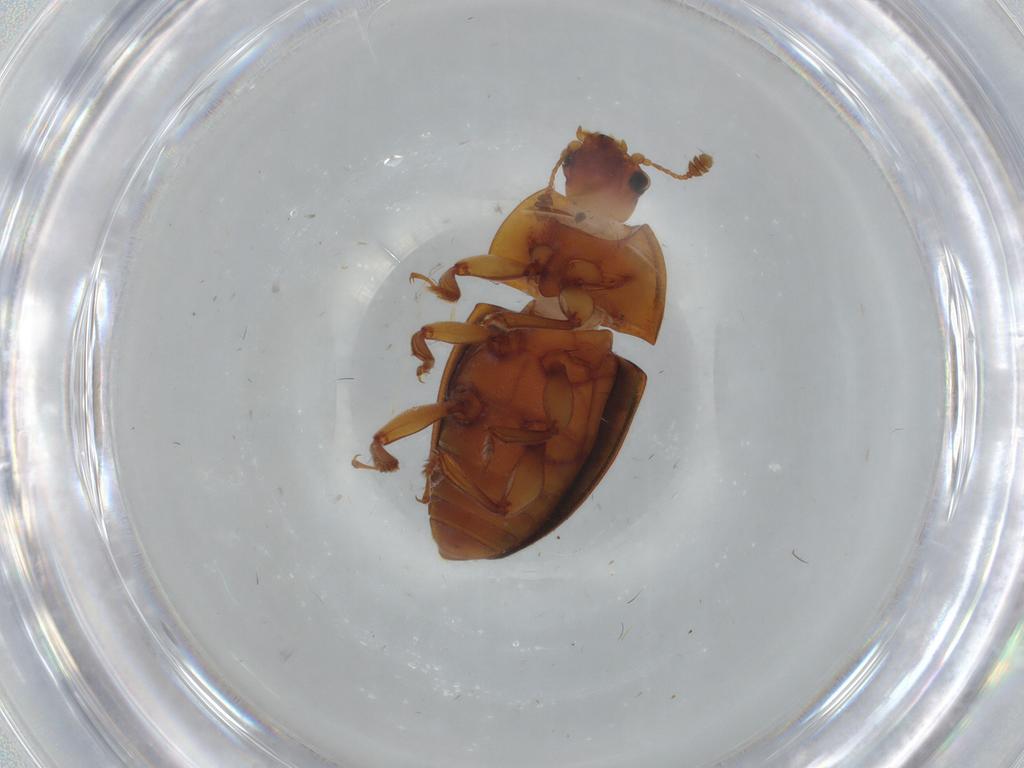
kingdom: Animalia
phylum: Arthropoda
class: Insecta
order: Coleoptera
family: Nitidulidae
